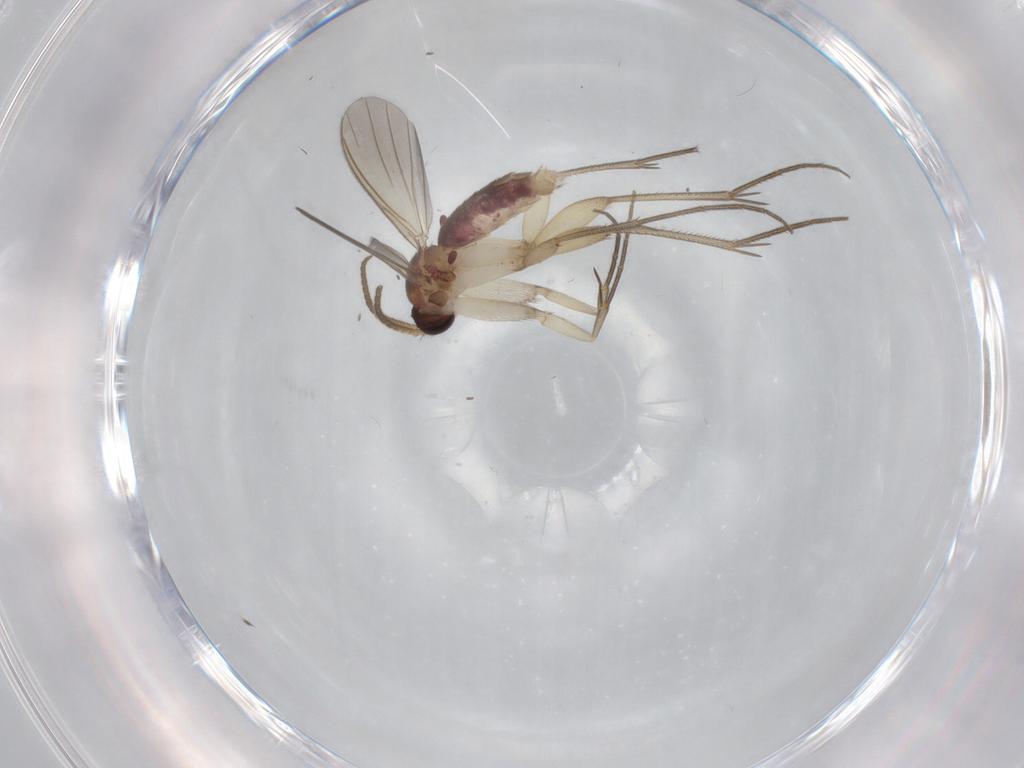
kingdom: Animalia
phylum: Arthropoda
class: Insecta
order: Diptera
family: Mycetophilidae
